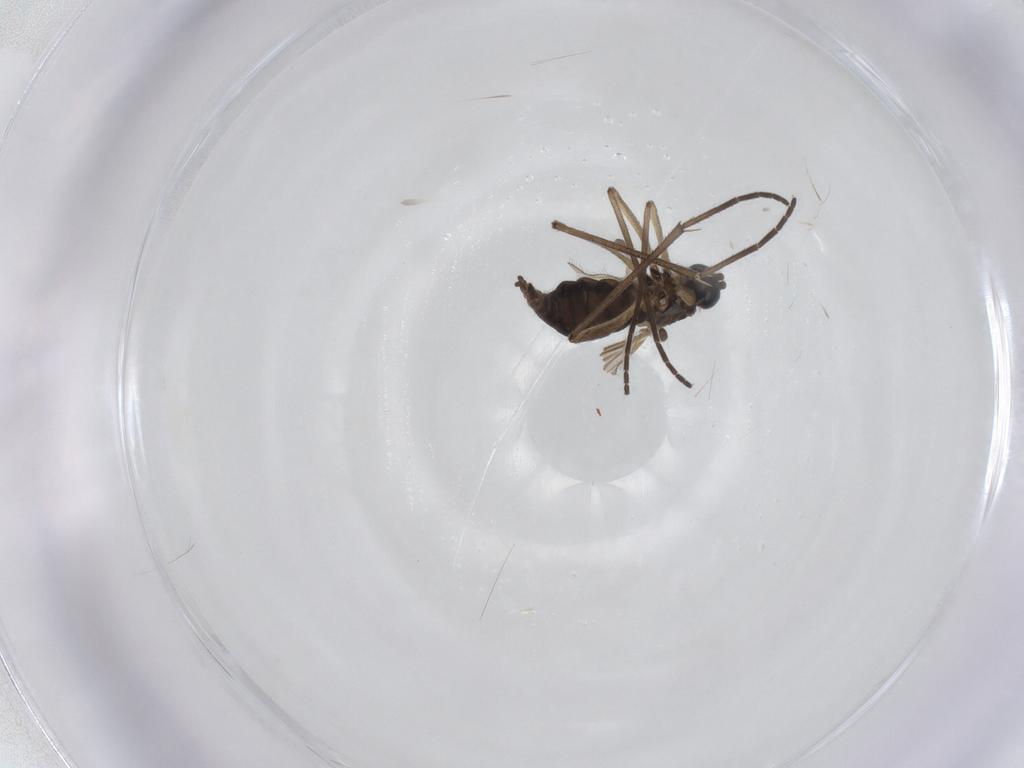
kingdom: Animalia
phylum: Arthropoda
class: Insecta
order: Diptera
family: Sciaridae
